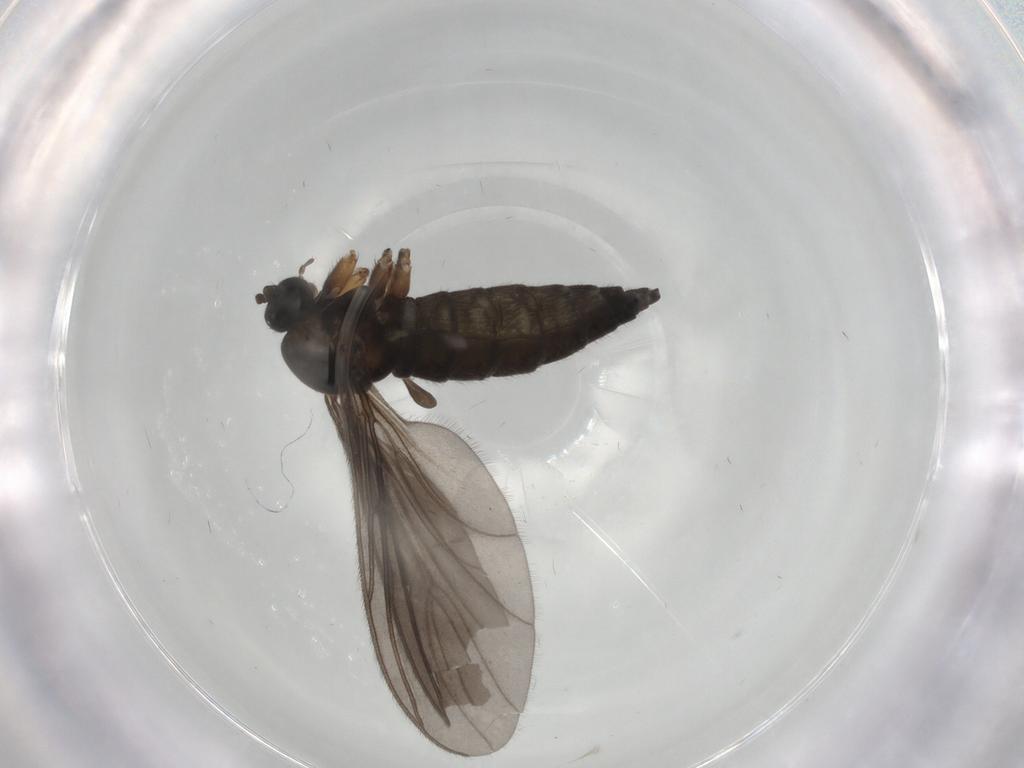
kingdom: Animalia
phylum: Arthropoda
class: Insecta
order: Diptera
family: Sciaridae
